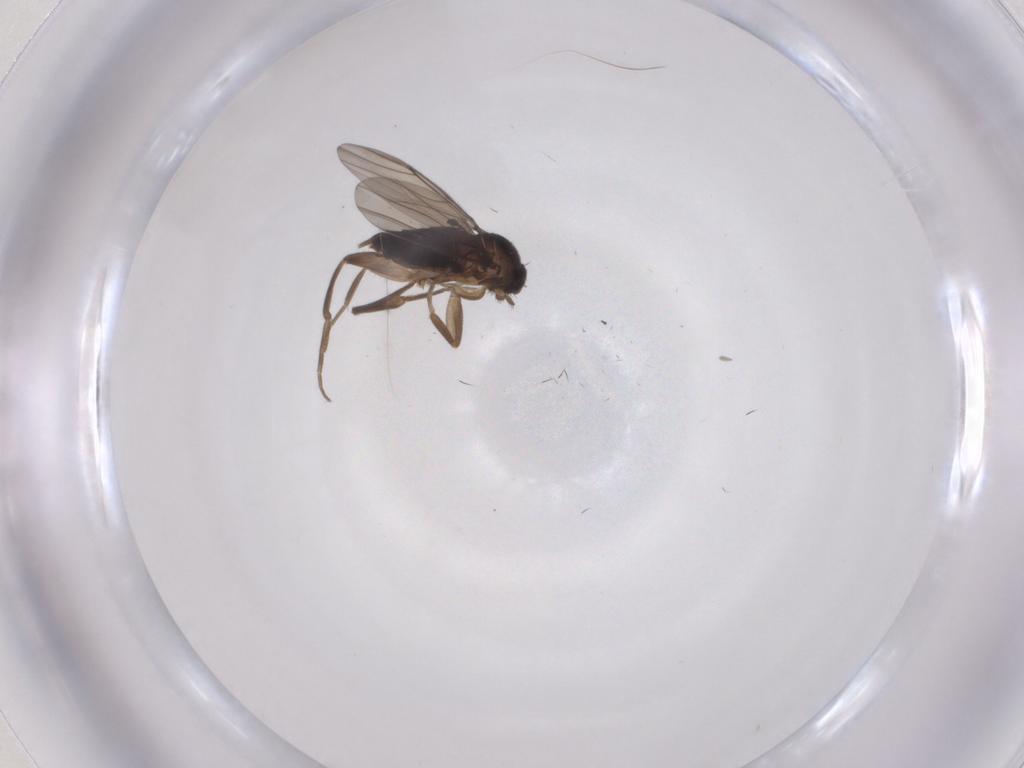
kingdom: Animalia
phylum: Arthropoda
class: Insecta
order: Diptera
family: Phoridae
